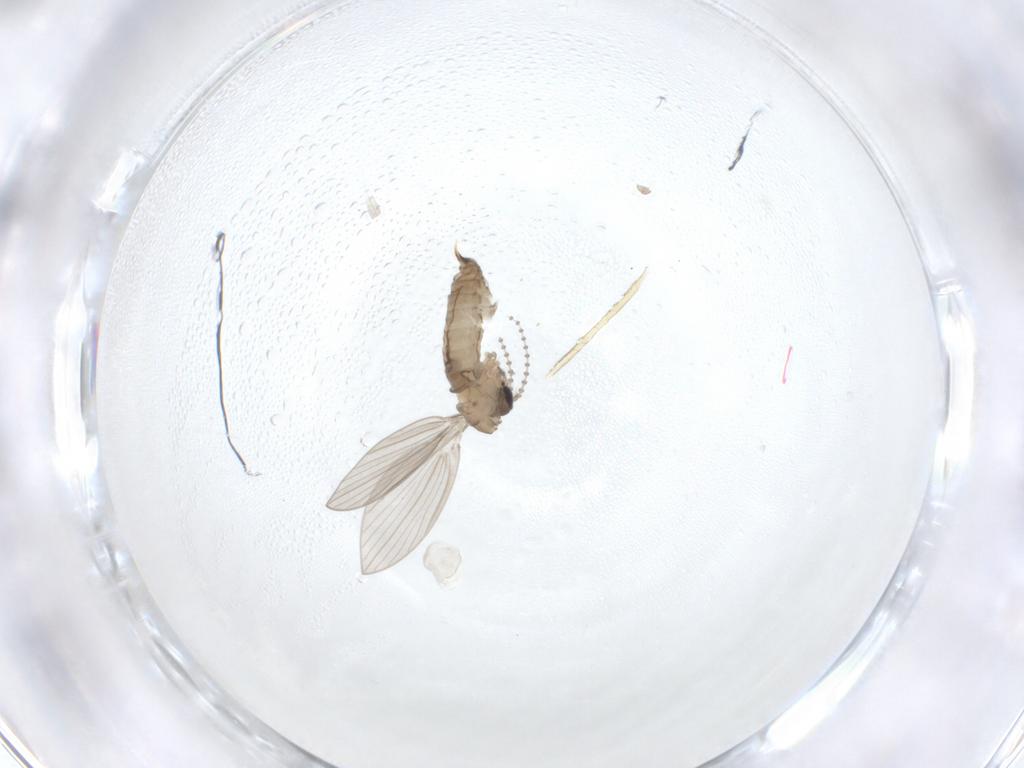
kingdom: Animalia
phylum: Arthropoda
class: Insecta
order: Diptera
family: Psychodidae
